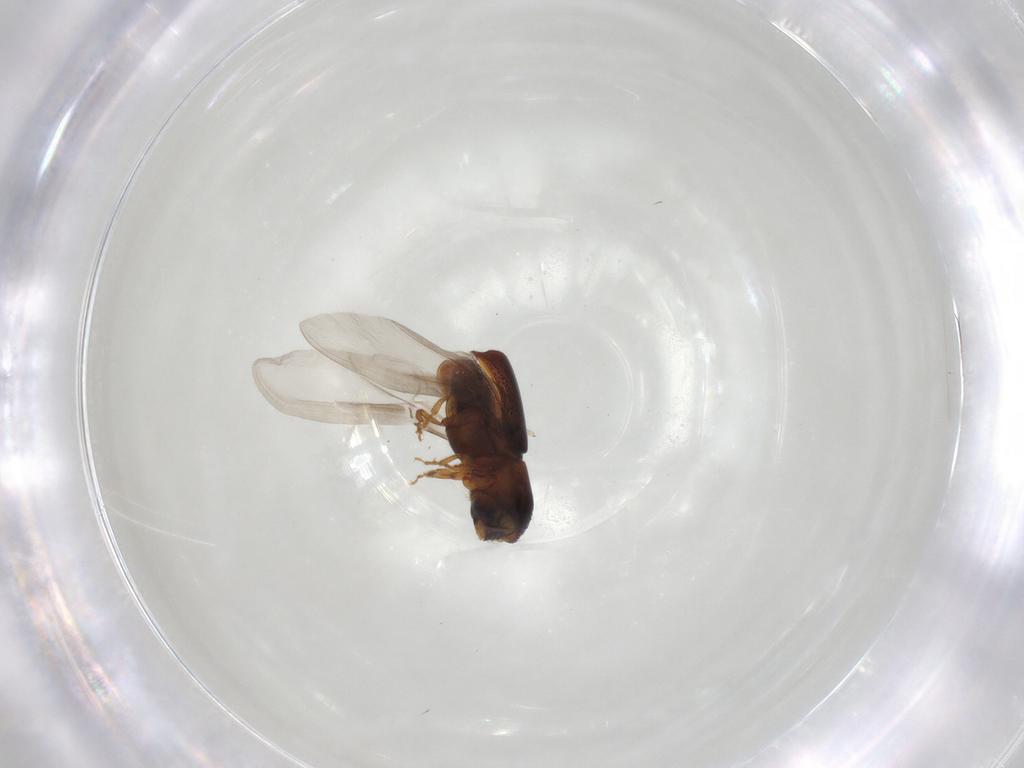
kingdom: Animalia
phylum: Arthropoda
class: Insecta
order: Coleoptera
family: Curculionidae
